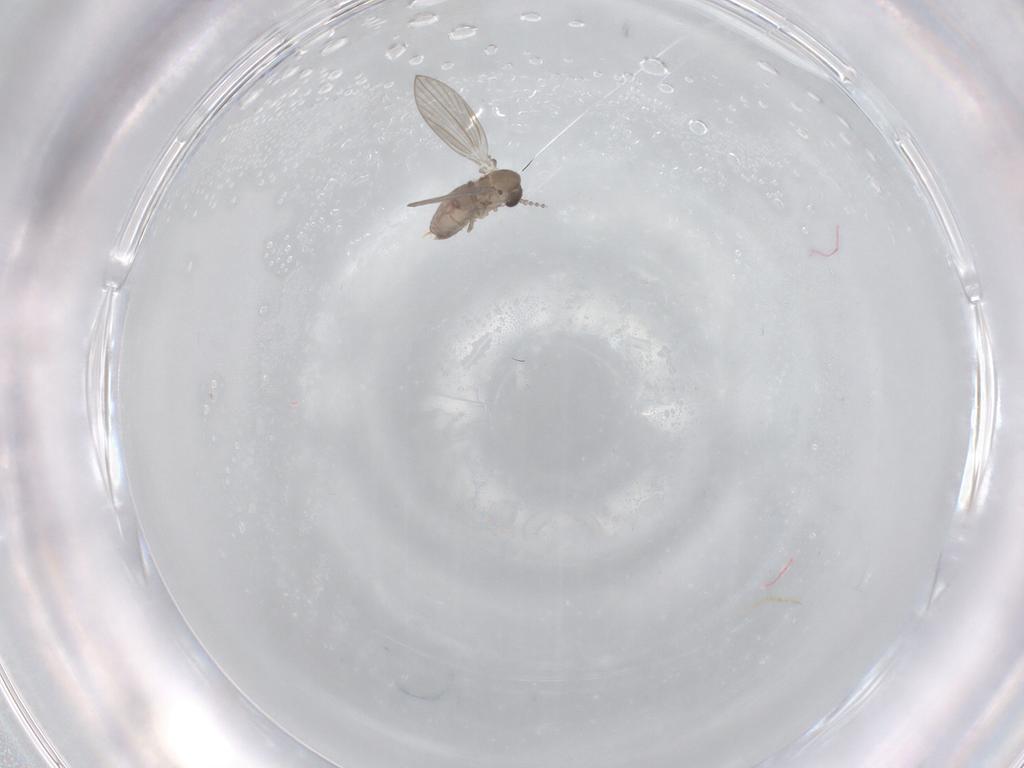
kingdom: Animalia
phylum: Arthropoda
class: Insecta
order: Diptera
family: Psychodidae
